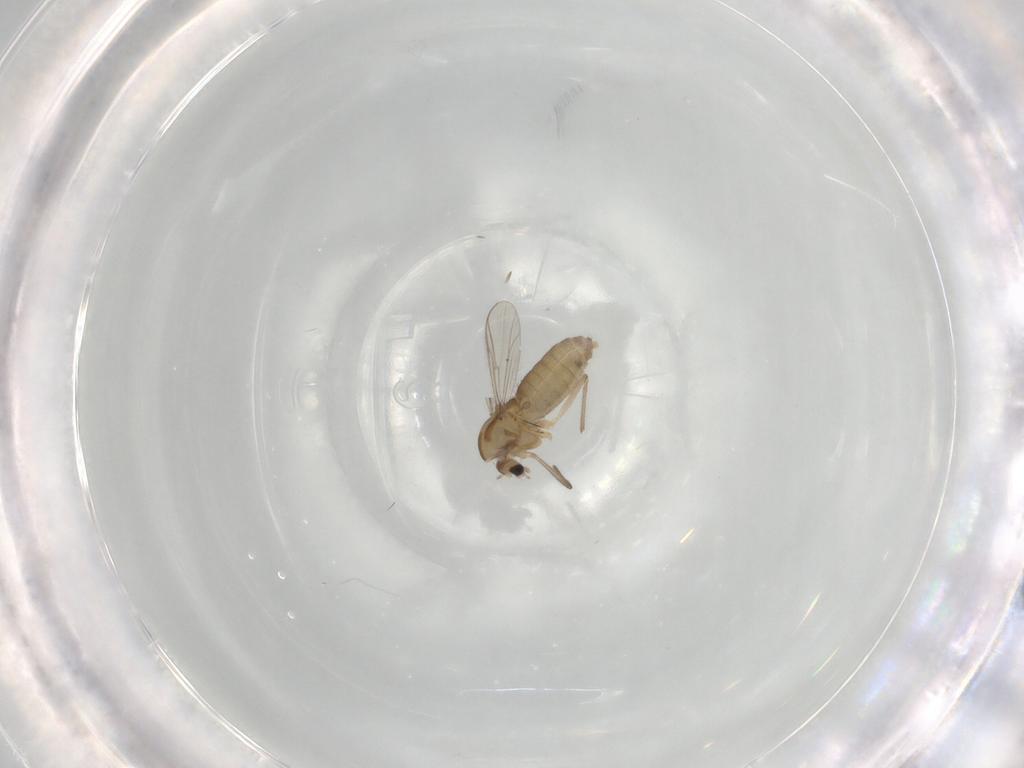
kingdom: Animalia
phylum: Arthropoda
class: Insecta
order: Diptera
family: Chironomidae
